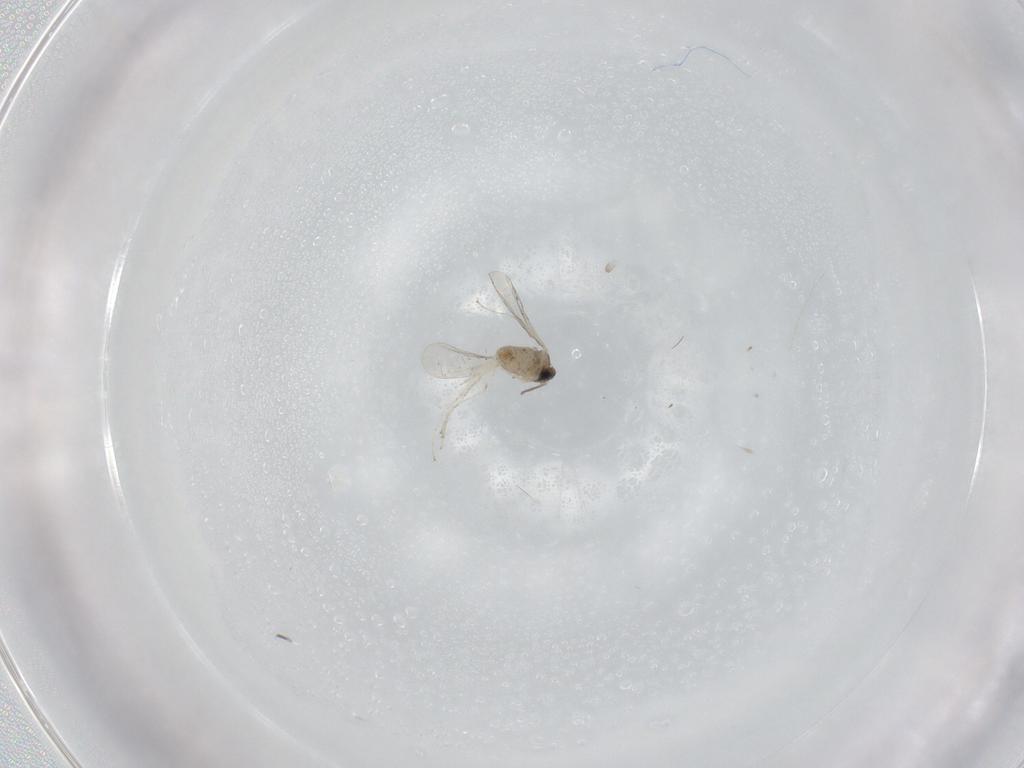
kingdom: Animalia
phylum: Arthropoda
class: Insecta
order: Diptera
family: Cecidomyiidae
